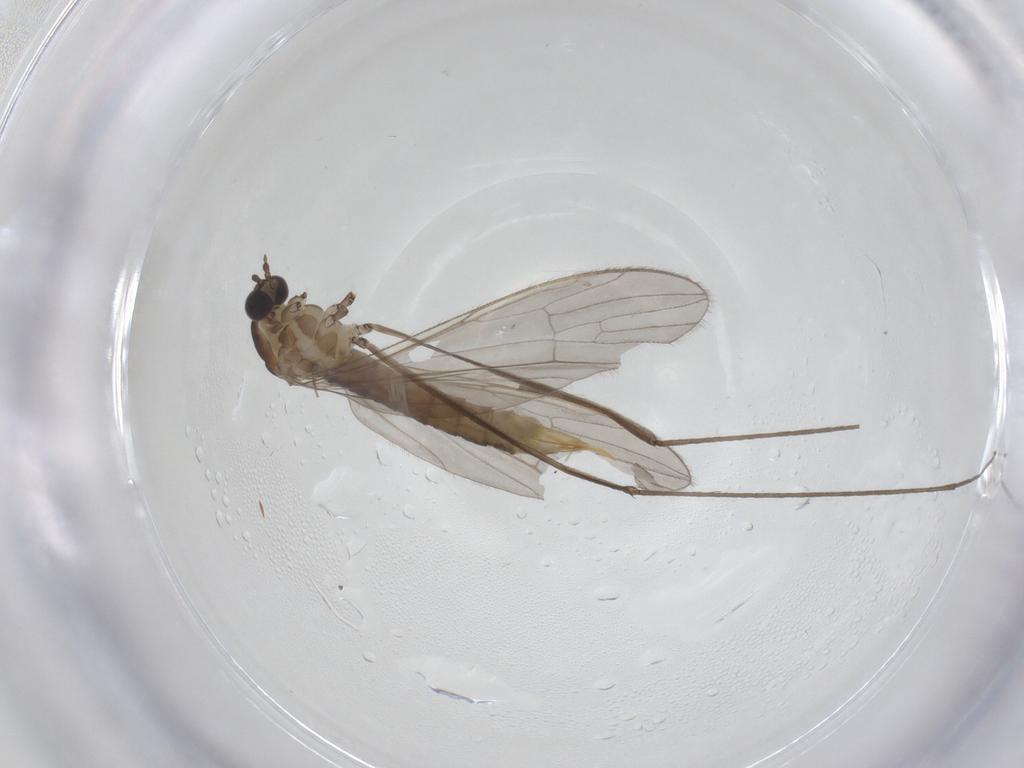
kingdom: Animalia
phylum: Arthropoda
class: Insecta
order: Diptera
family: Limoniidae
